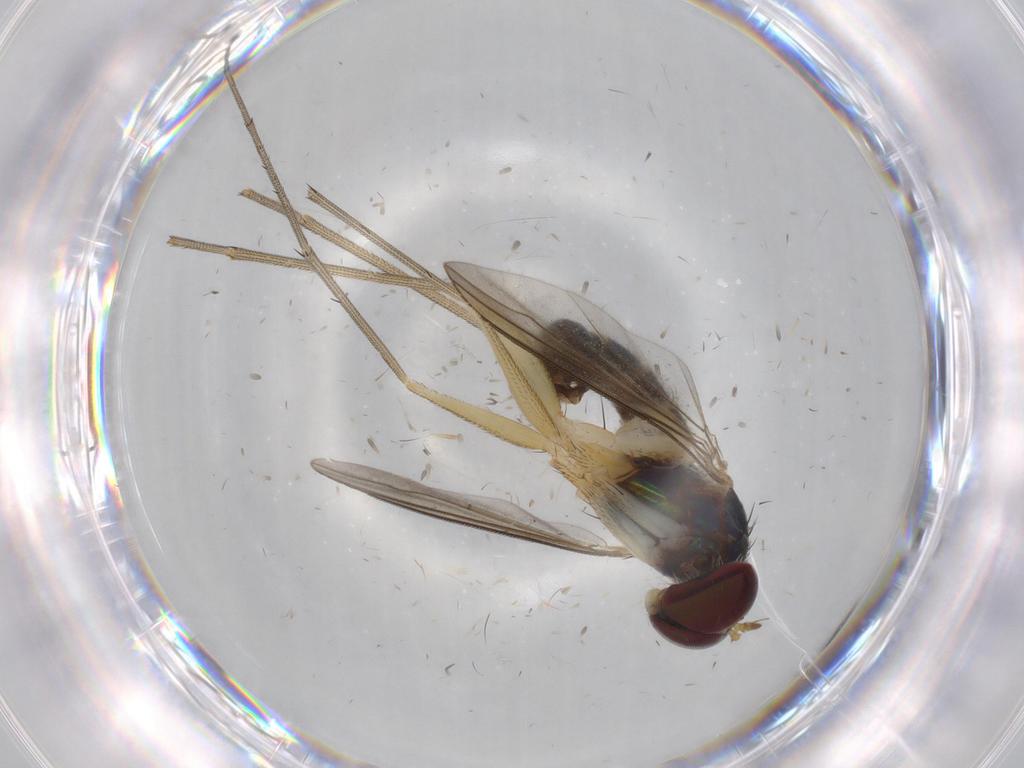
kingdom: Animalia
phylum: Arthropoda
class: Insecta
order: Diptera
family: Dolichopodidae
